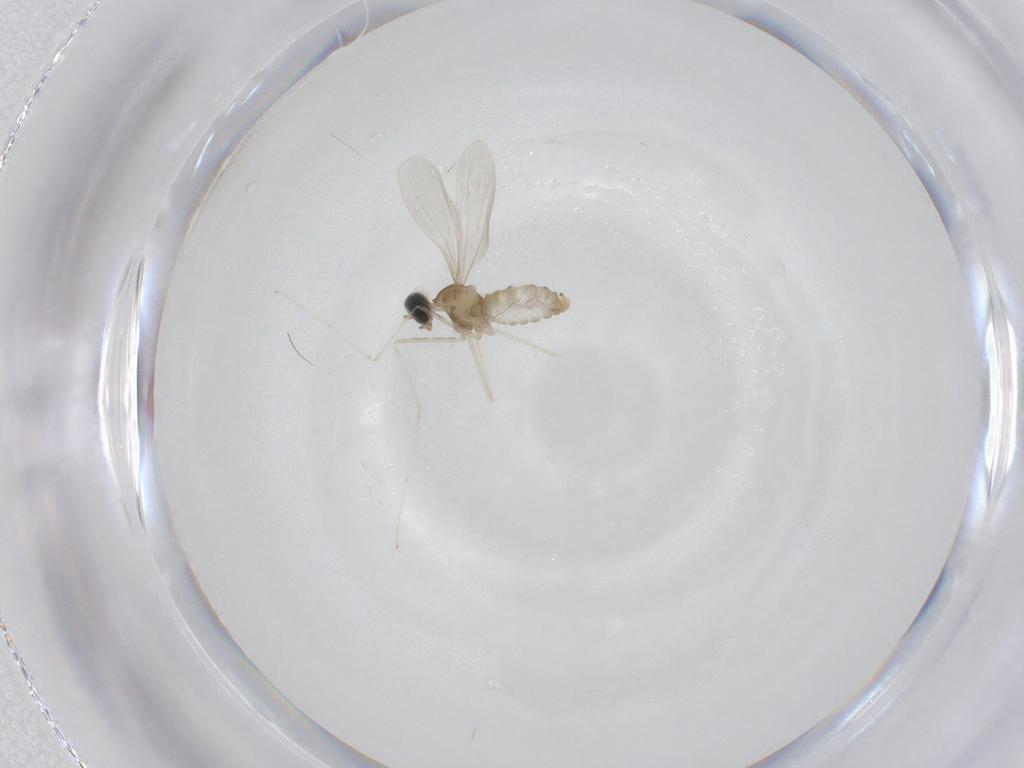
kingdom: Animalia
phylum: Arthropoda
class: Insecta
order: Diptera
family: Cecidomyiidae
